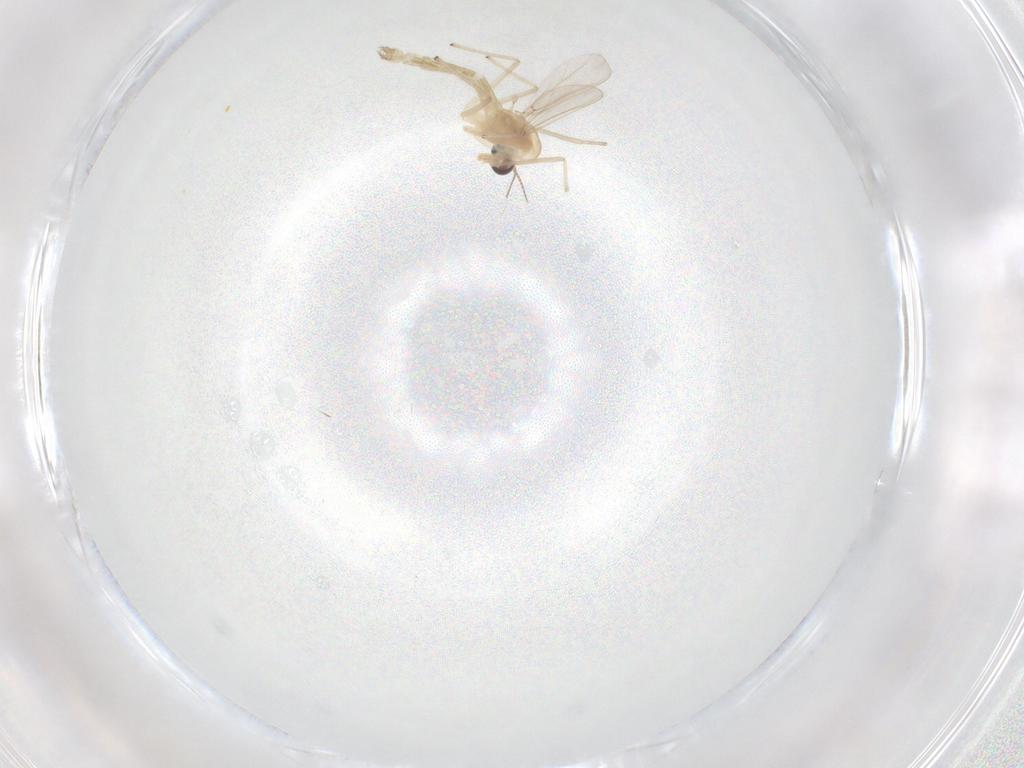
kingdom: Animalia
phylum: Arthropoda
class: Insecta
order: Diptera
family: Chironomidae
